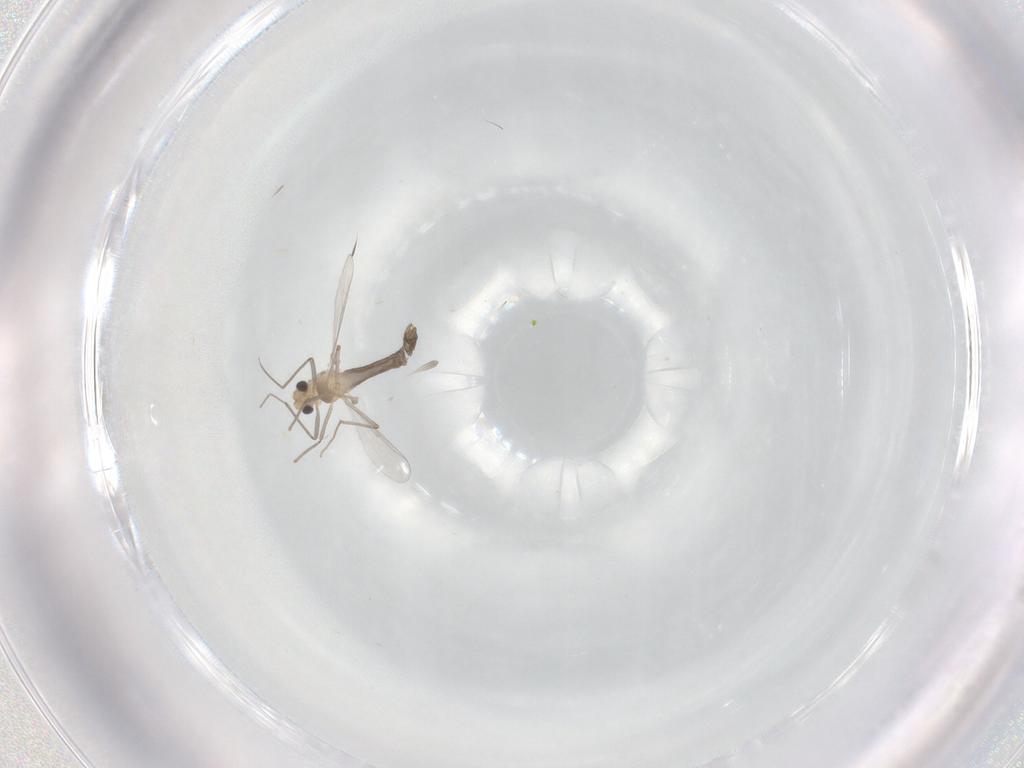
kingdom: Animalia
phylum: Arthropoda
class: Insecta
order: Diptera
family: Chironomidae
